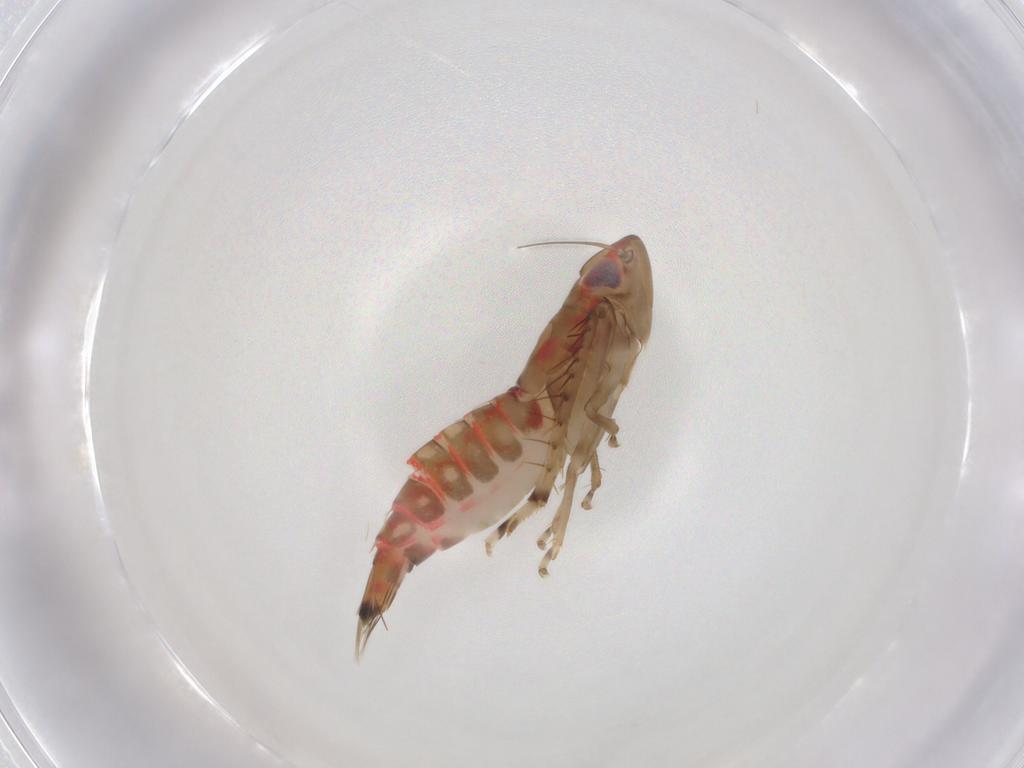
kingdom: Animalia
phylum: Arthropoda
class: Insecta
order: Hemiptera
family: Cicadellidae
